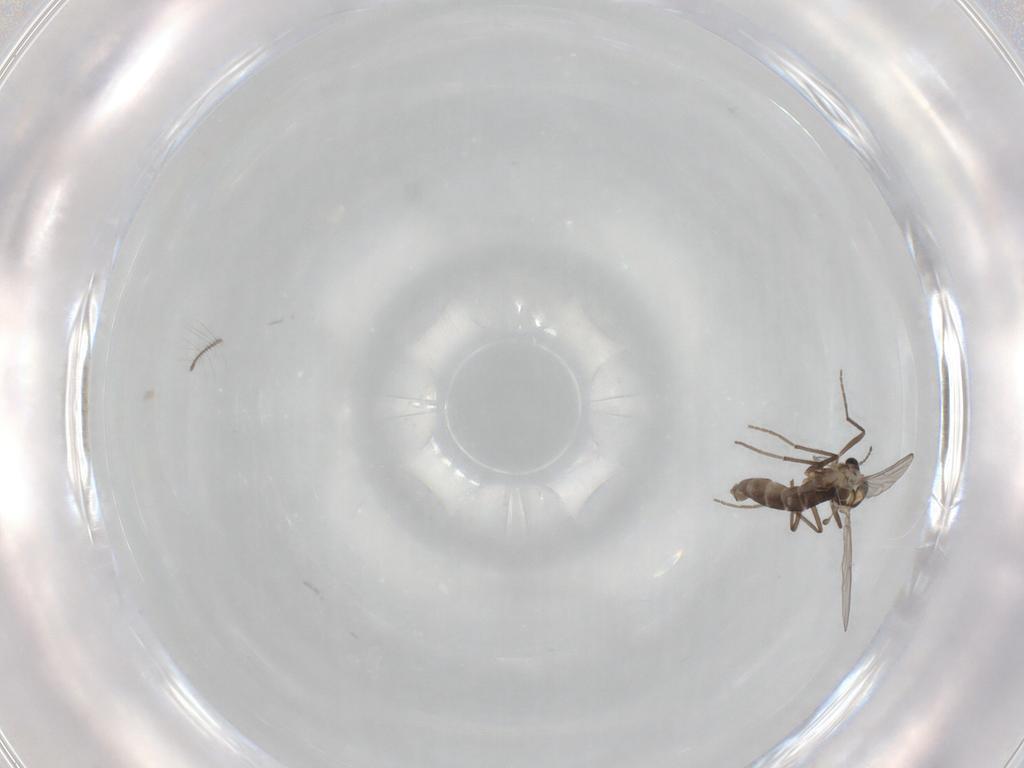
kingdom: Animalia
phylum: Arthropoda
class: Insecta
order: Diptera
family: Chironomidae
